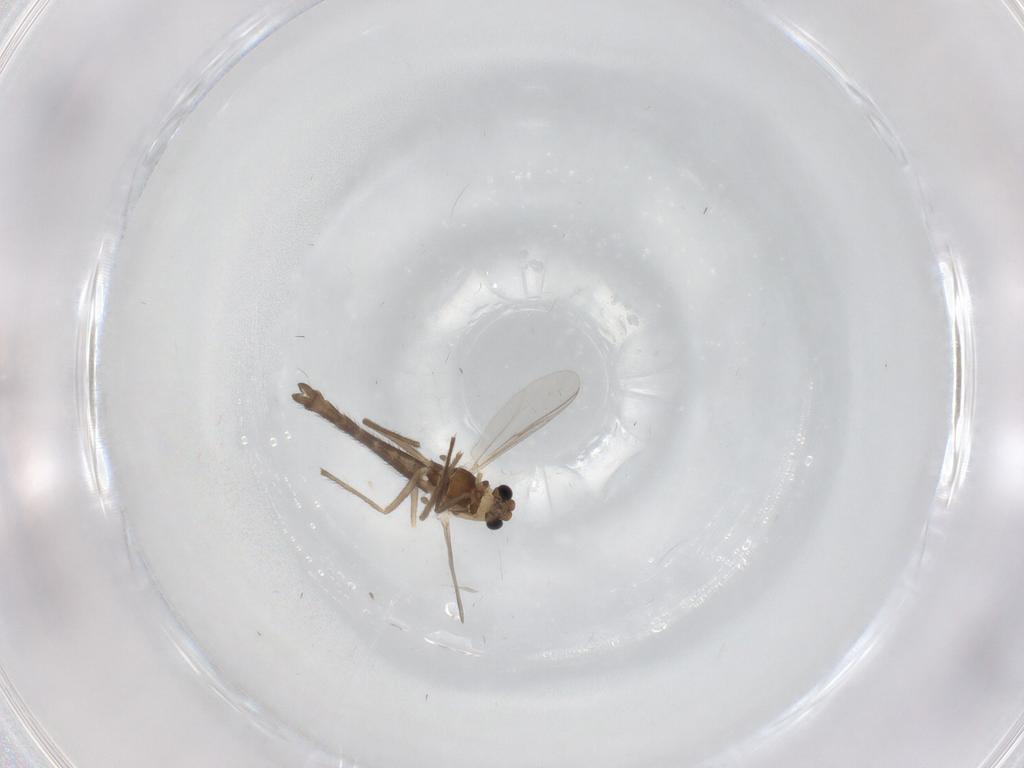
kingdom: Animalia
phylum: Arthropoda
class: Insecta
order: Diptera
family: Chironomidae
